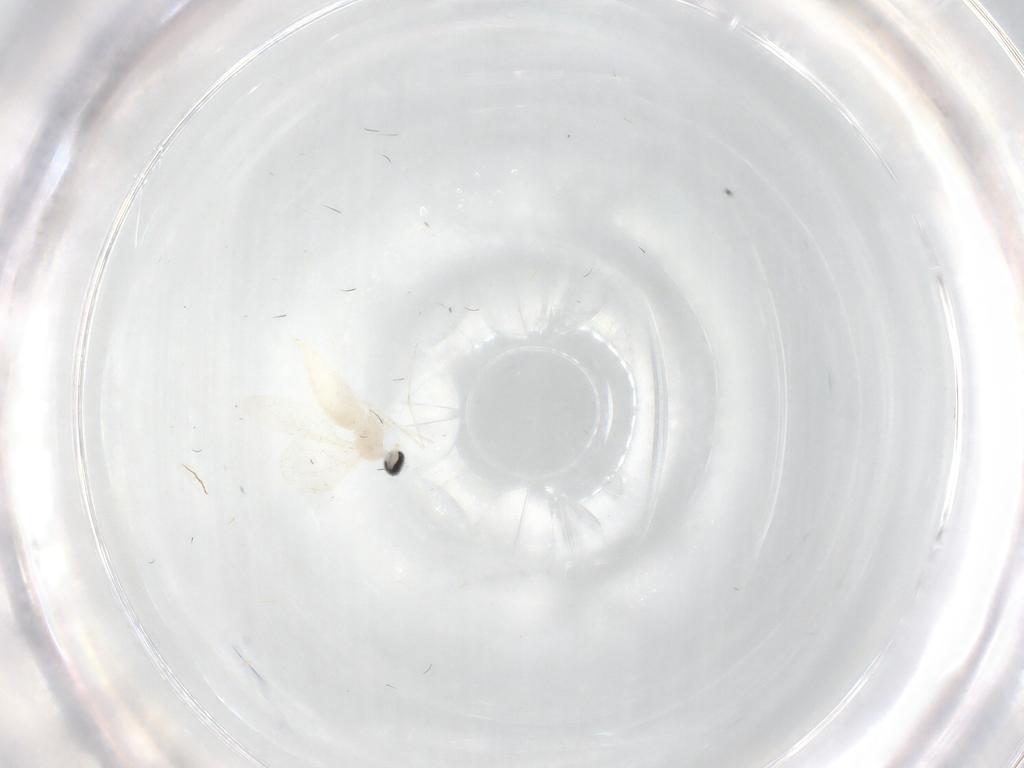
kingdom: Animalia
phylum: Arthropoda
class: Insecta
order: Diptera
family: Cecidomyiidae
